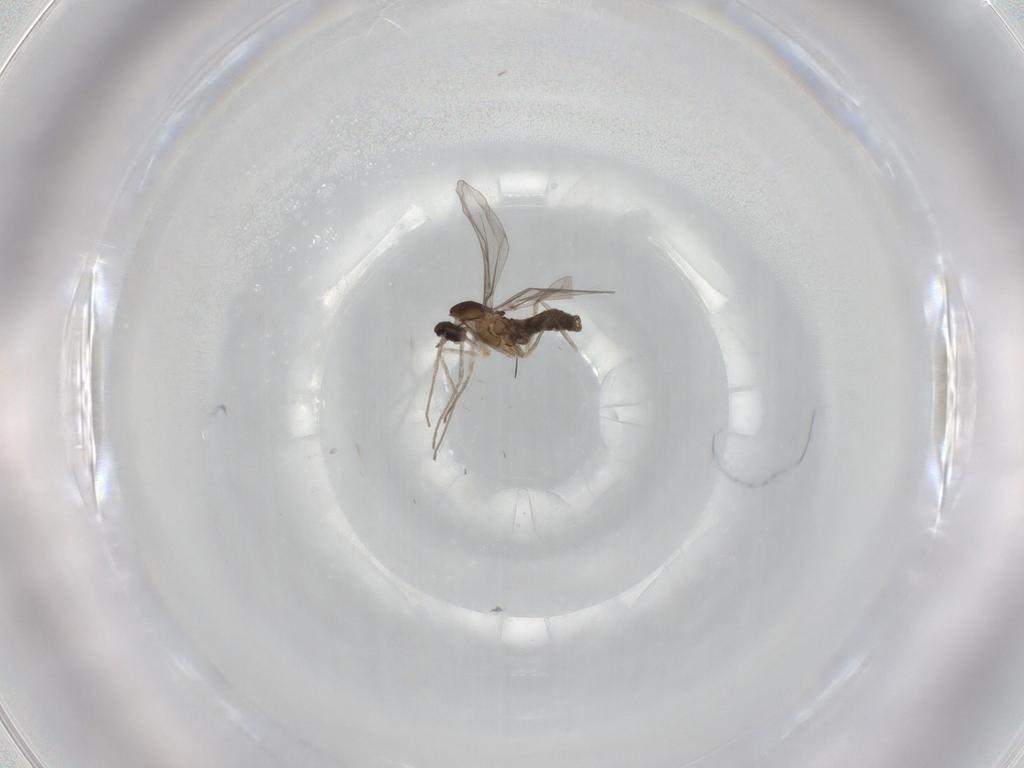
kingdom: Animalia
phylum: Arthropoda
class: Insecta
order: Diptera
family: Cecidomyiidae
